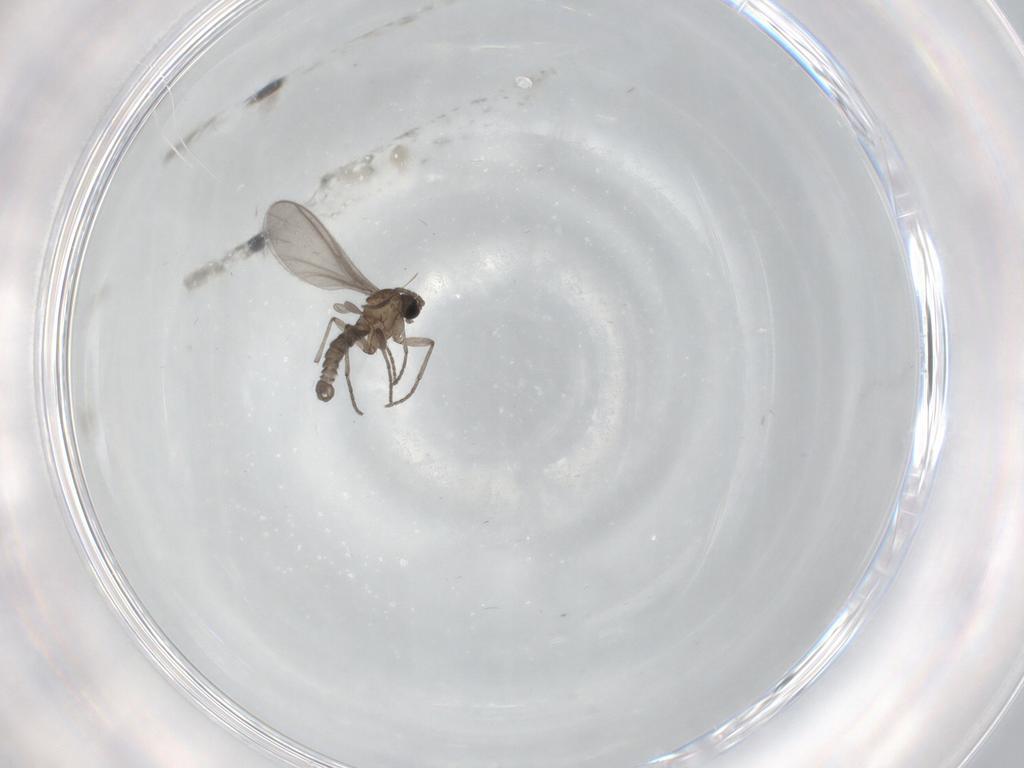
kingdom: Animalia
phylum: Arthropoda
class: Insecta
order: Diptera
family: Sciaridae
